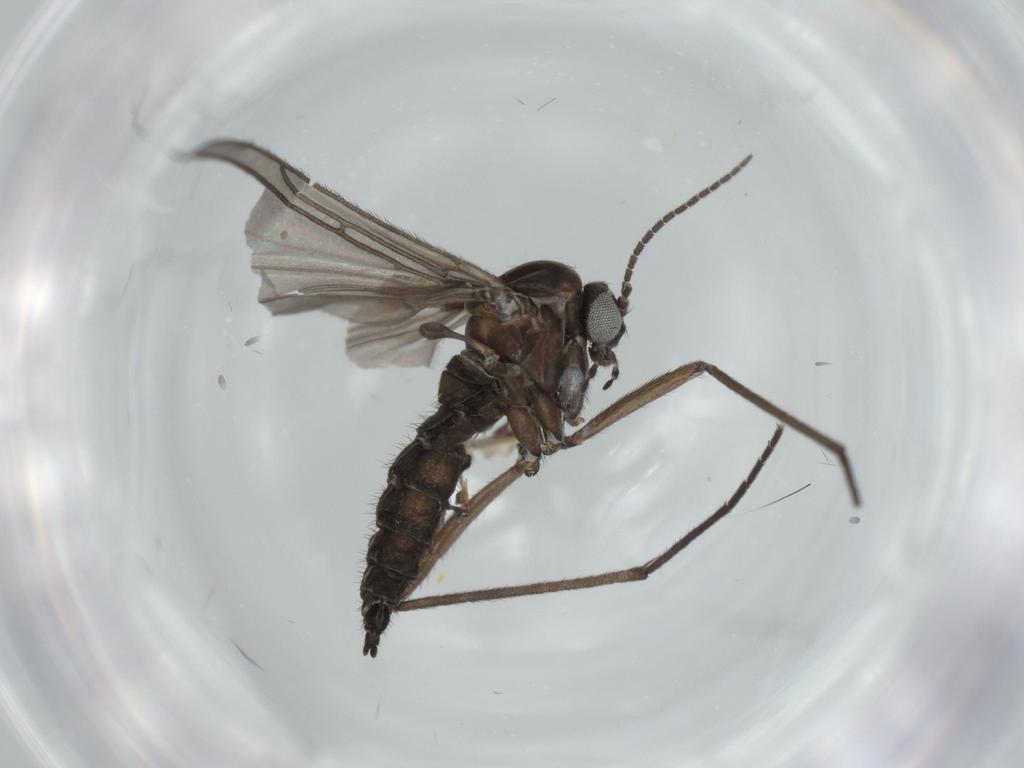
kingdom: Animalia
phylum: Arthropoda
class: Insecta
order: Diptera
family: Sciaridae
